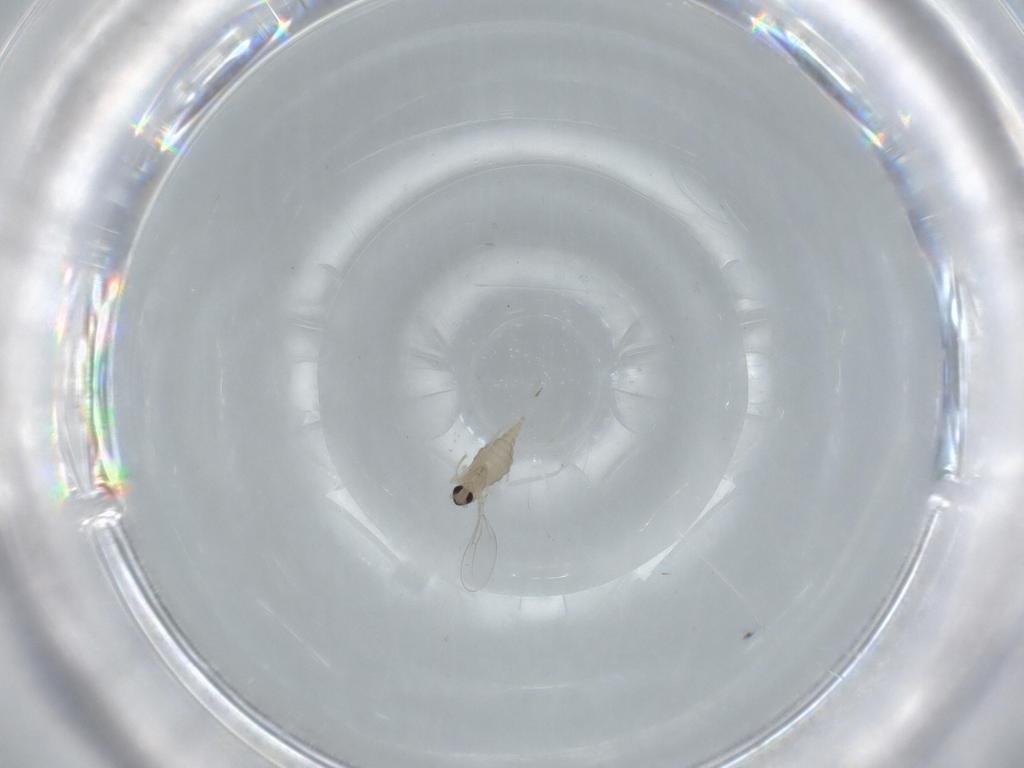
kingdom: Animalia
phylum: Arthropoda
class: Insecta
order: Diptera
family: Cecidomyiidae
